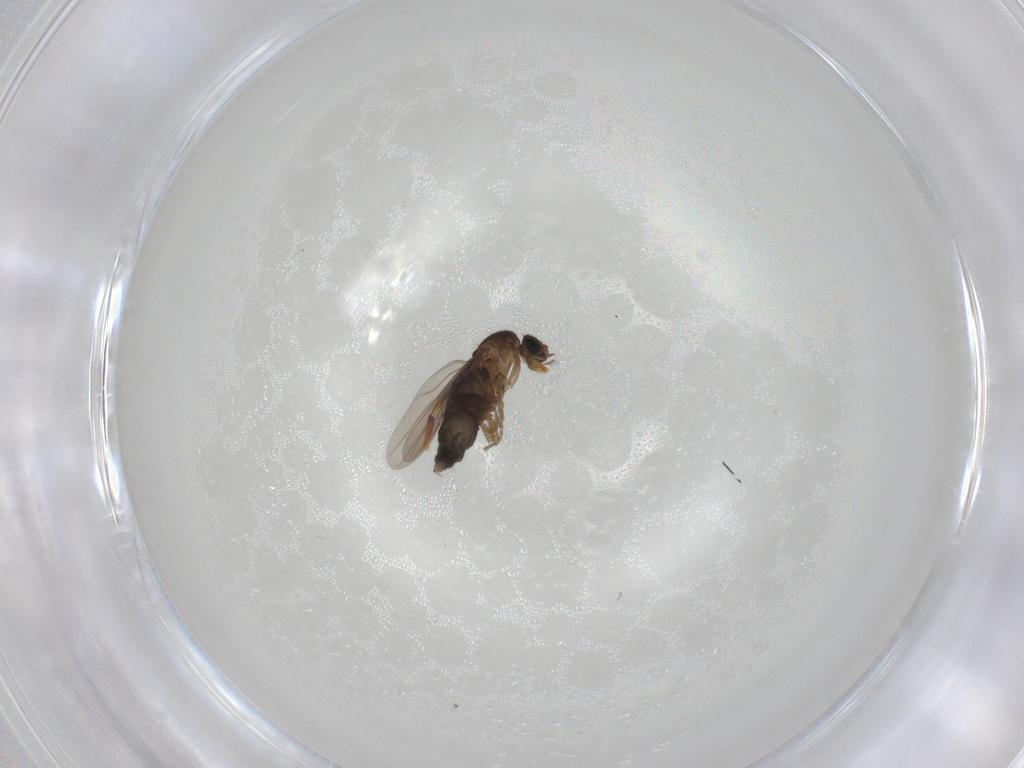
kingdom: Animalia
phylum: Arthropoda
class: Insecta
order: Diptera
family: Phoridae
